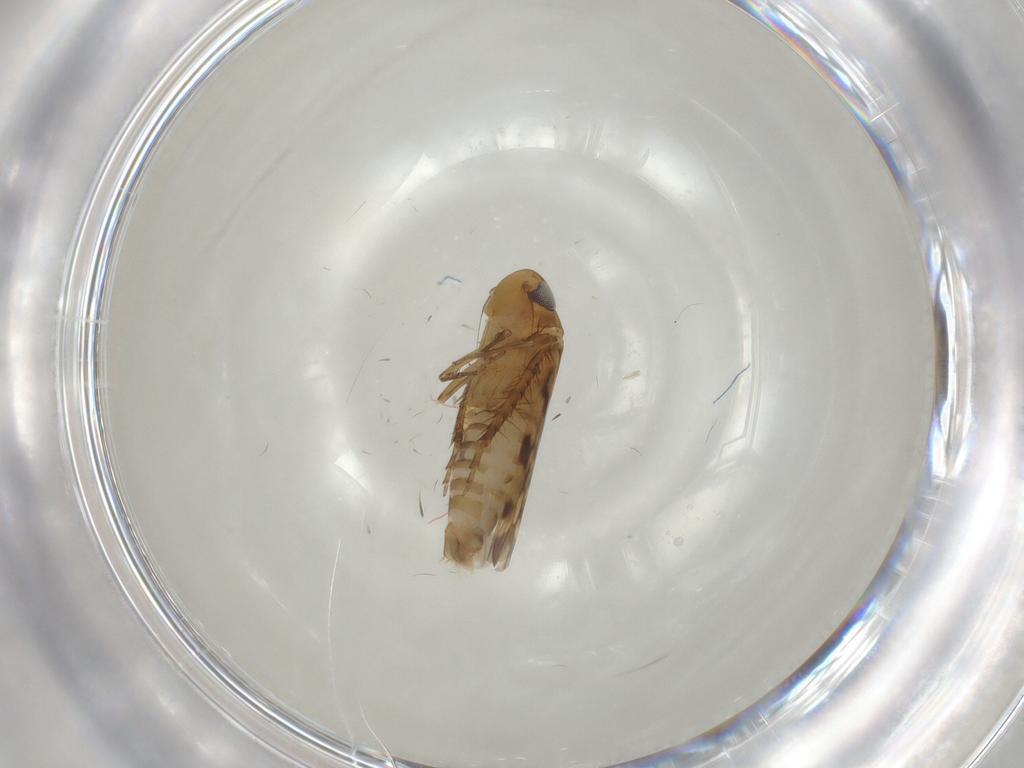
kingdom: Animalia
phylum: Arthropoda
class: Insecta
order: Hemiptera
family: Cicadellidae
